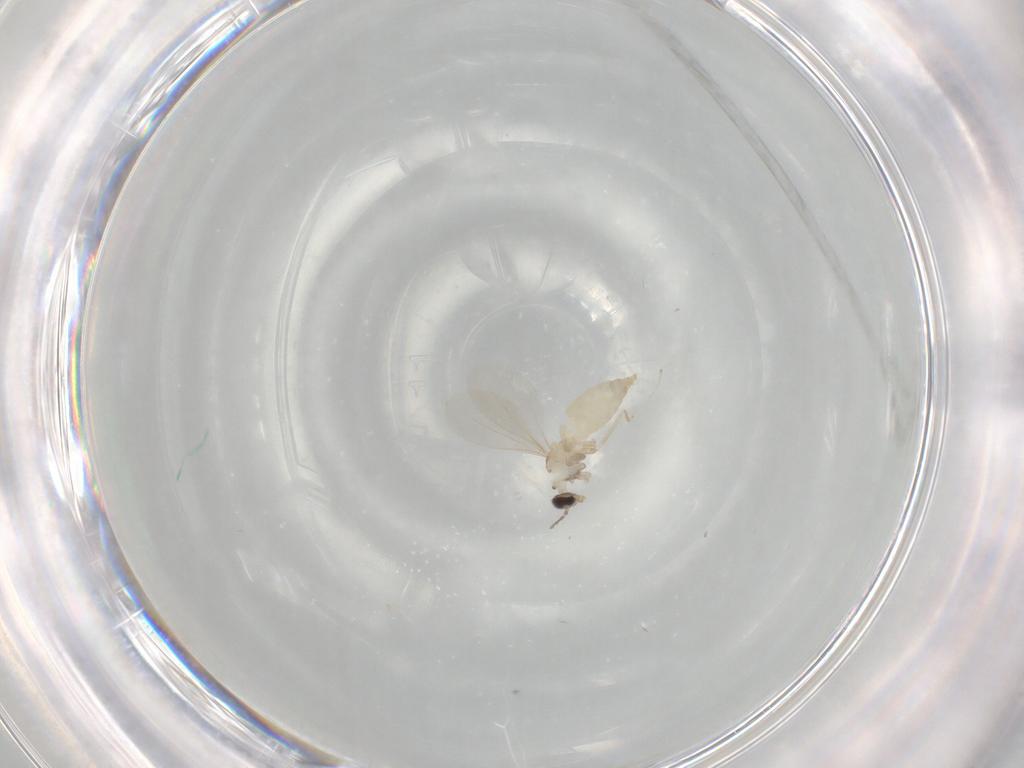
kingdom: Animalia
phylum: Arthropoda
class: Insecta
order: Diptera
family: Cecidomyiidae
